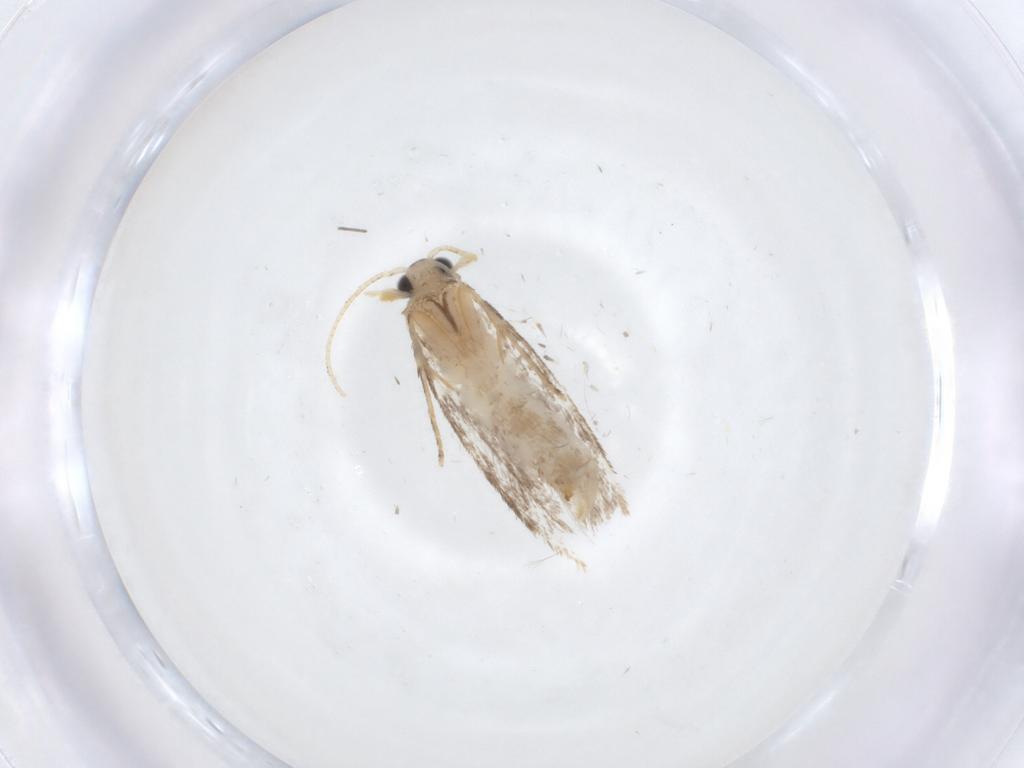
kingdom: Animalia
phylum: Arthropoda
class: Insecta
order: Lepidoptera
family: Dryadaulidae
